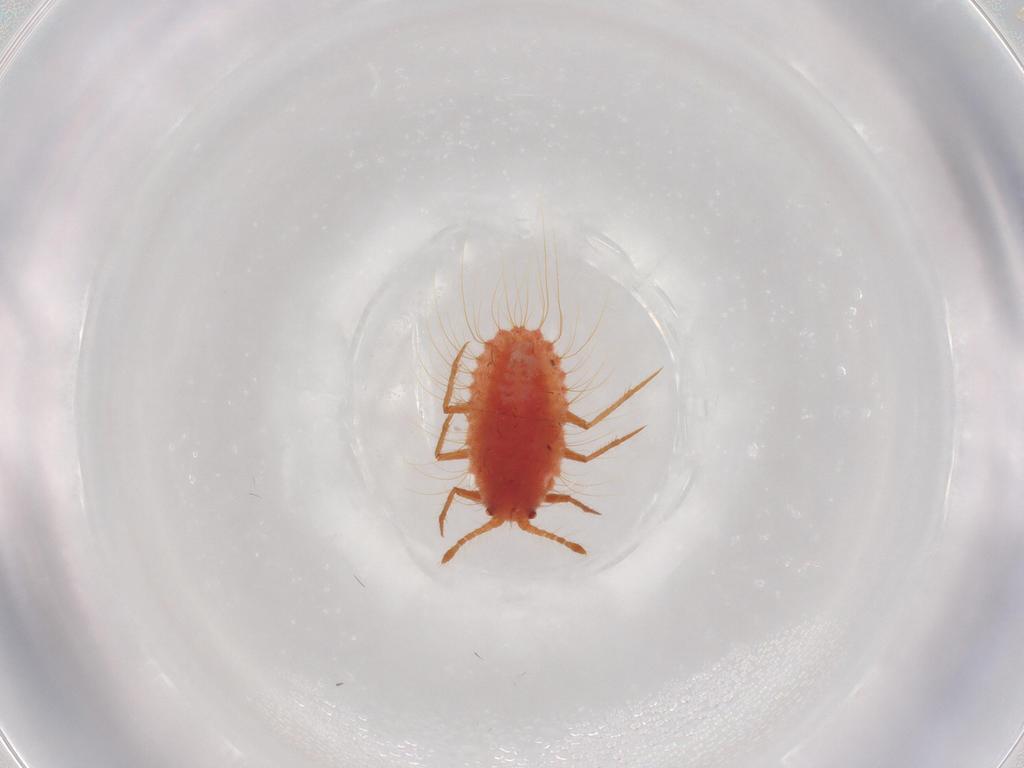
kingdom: Animalia
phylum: Arthropoda
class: Insecta
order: Hemiptera
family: Monophlebidae
